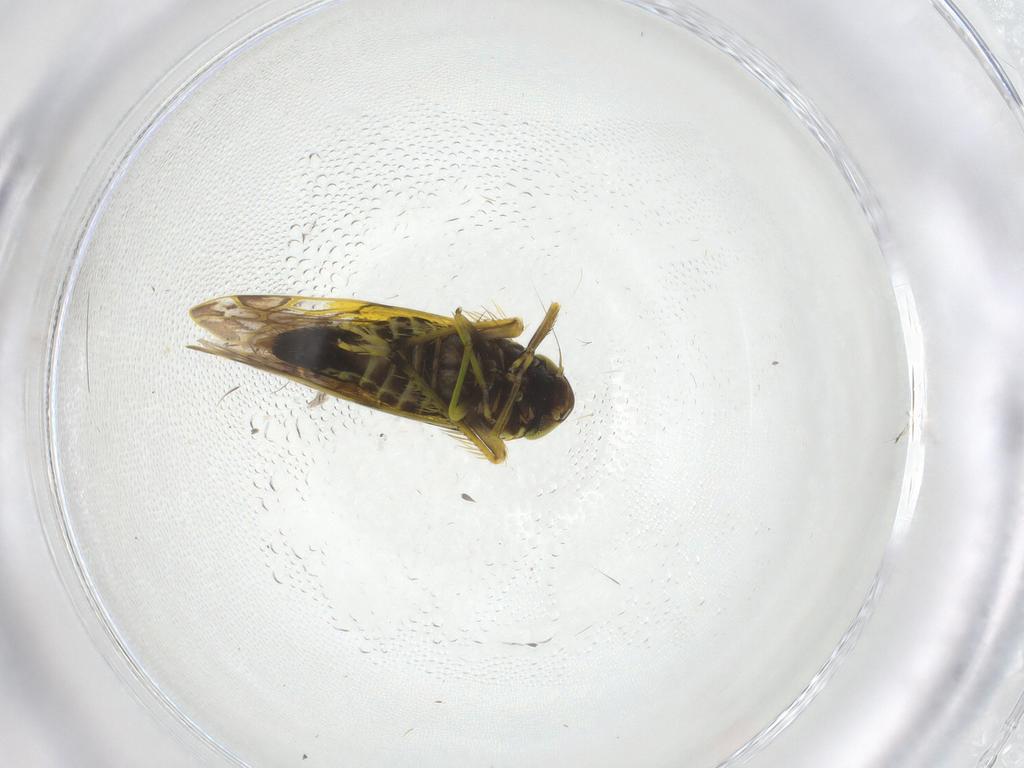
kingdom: Animalia
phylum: Arthropoda
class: Insecta
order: Hemiptera
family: Cicadellidae
